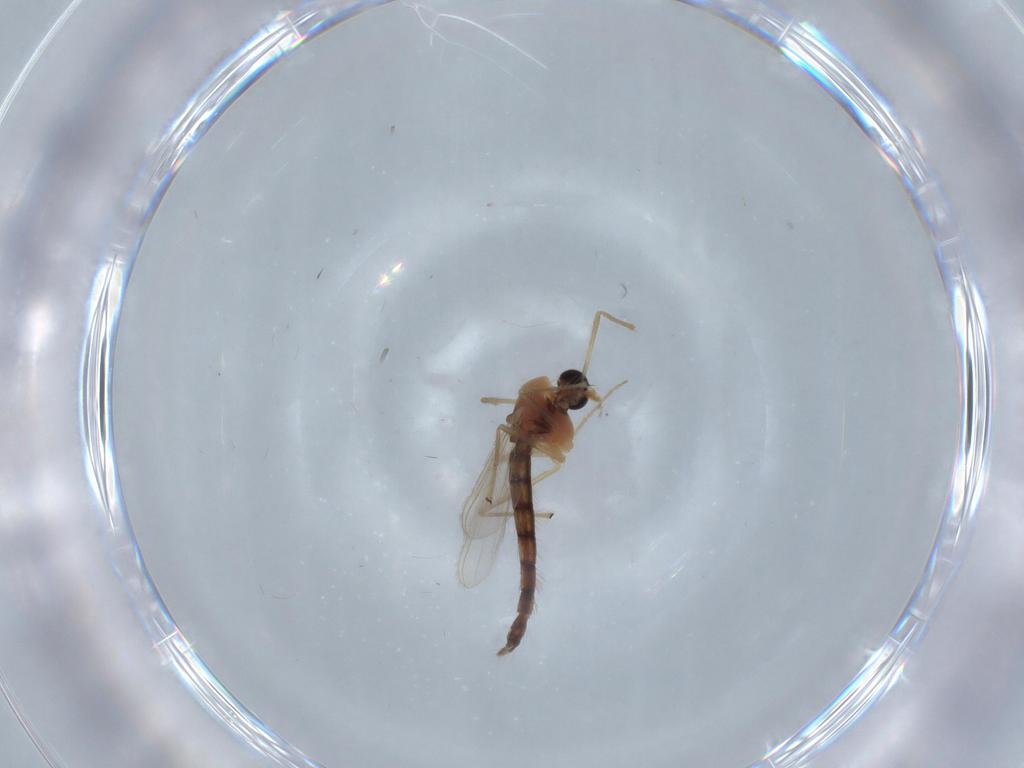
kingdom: Animalia
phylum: Arthropoda
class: Insecta
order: Diptera
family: Chironomidae
